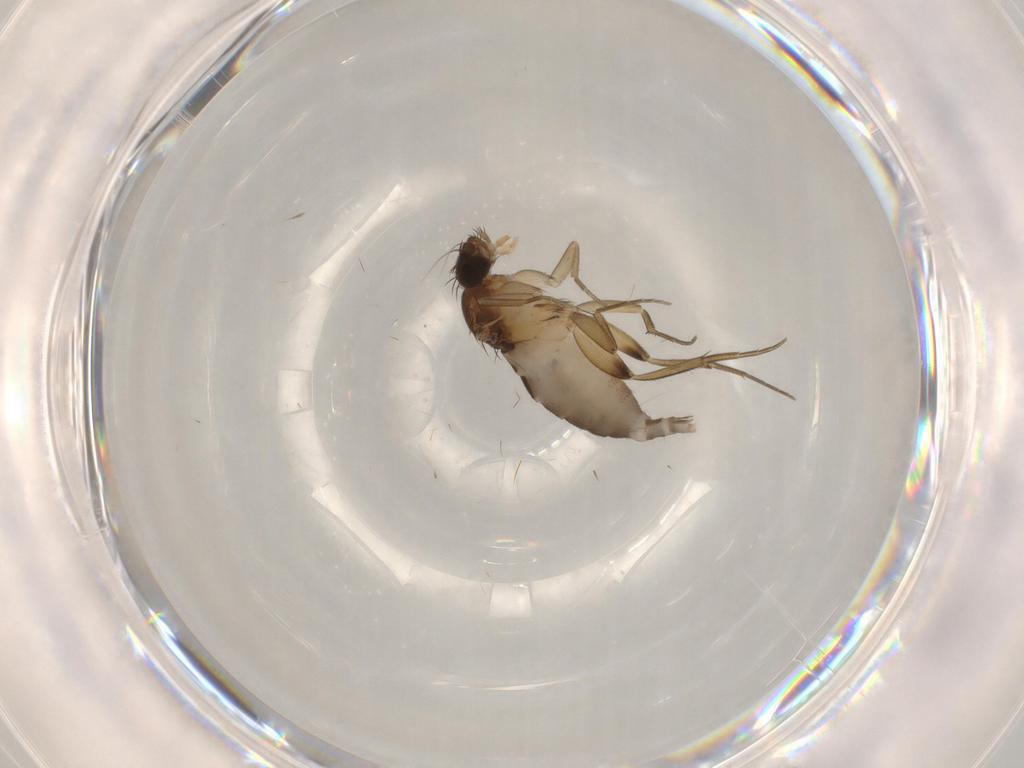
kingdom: Animalia
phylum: Arthropoda
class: Insecta
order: Diptera
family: Phoridae
